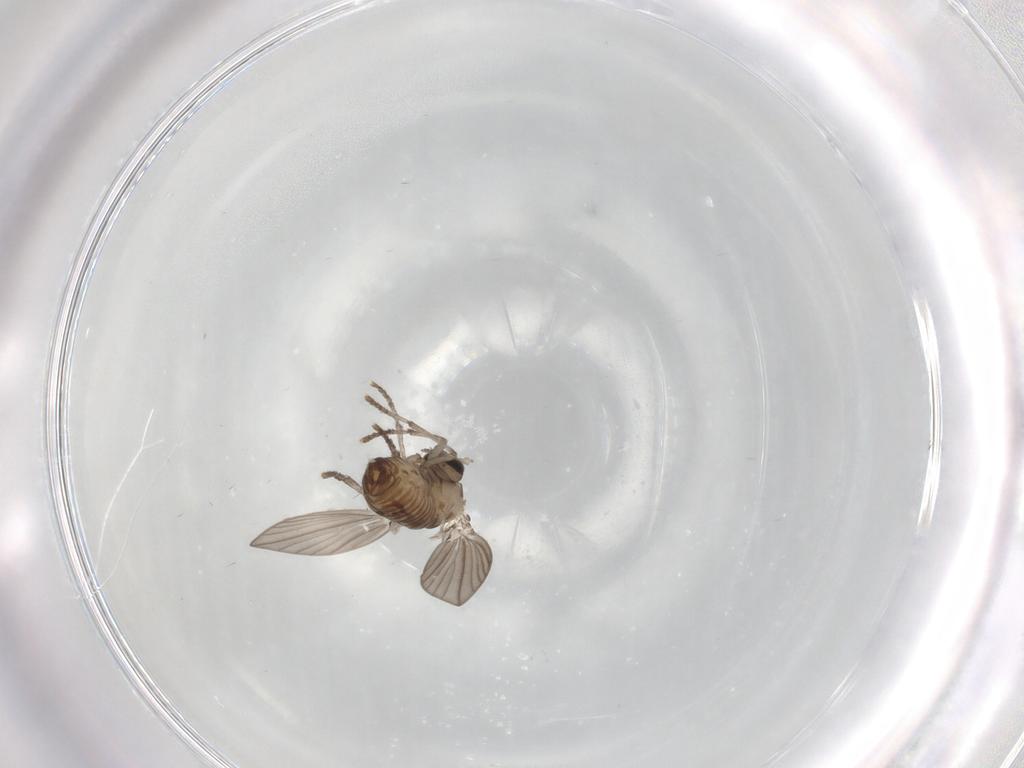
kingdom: Animalia
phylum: Arthropoda
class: Insecta
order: Diptera
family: Psychodidae
